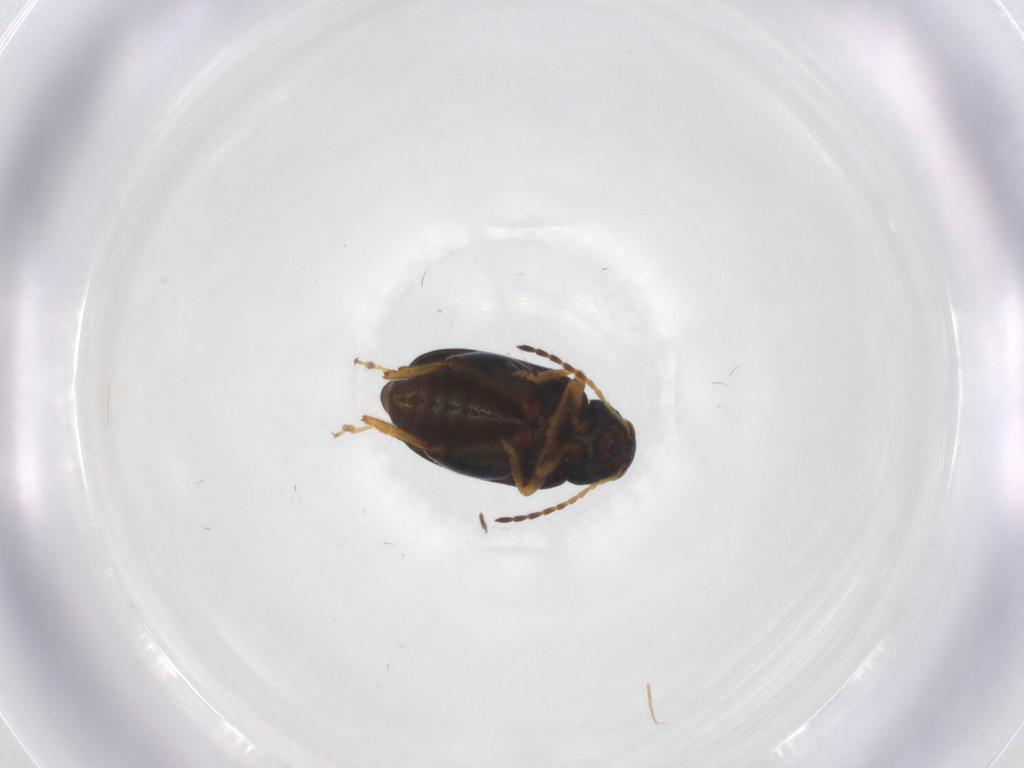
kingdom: Animalia
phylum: Arthropoda
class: Insecta
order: Coleoptera
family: Chrysomelidae
